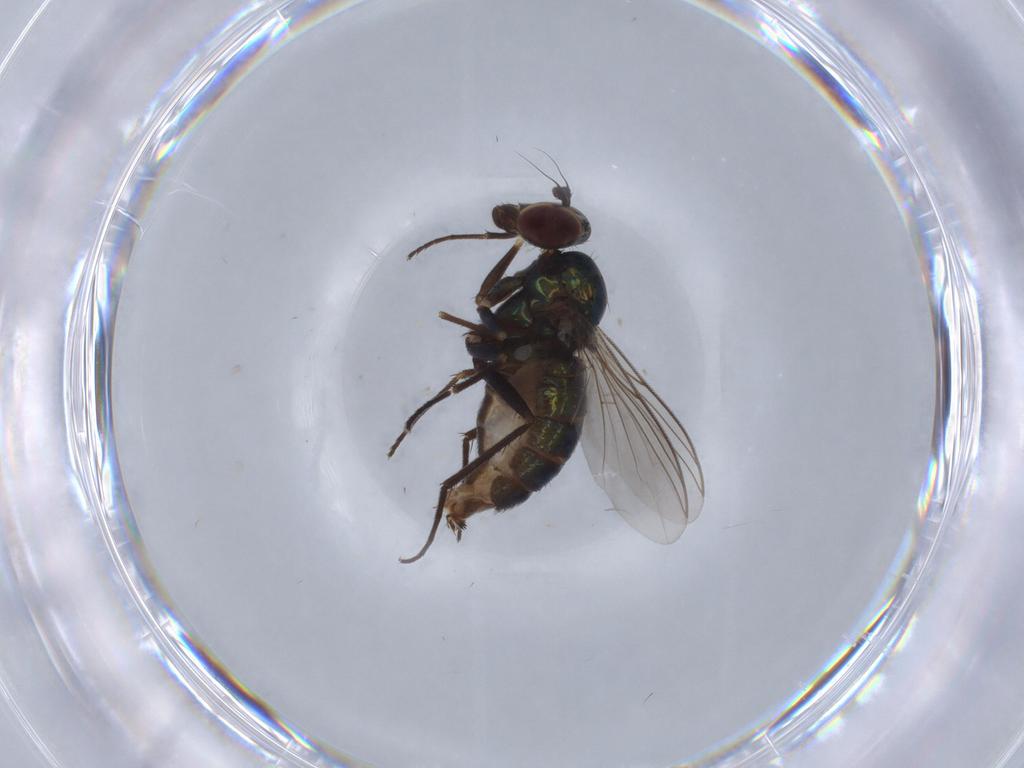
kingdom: Animalia
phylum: Arthropoda
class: Insecta
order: Diptera
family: Dolichopodidae
